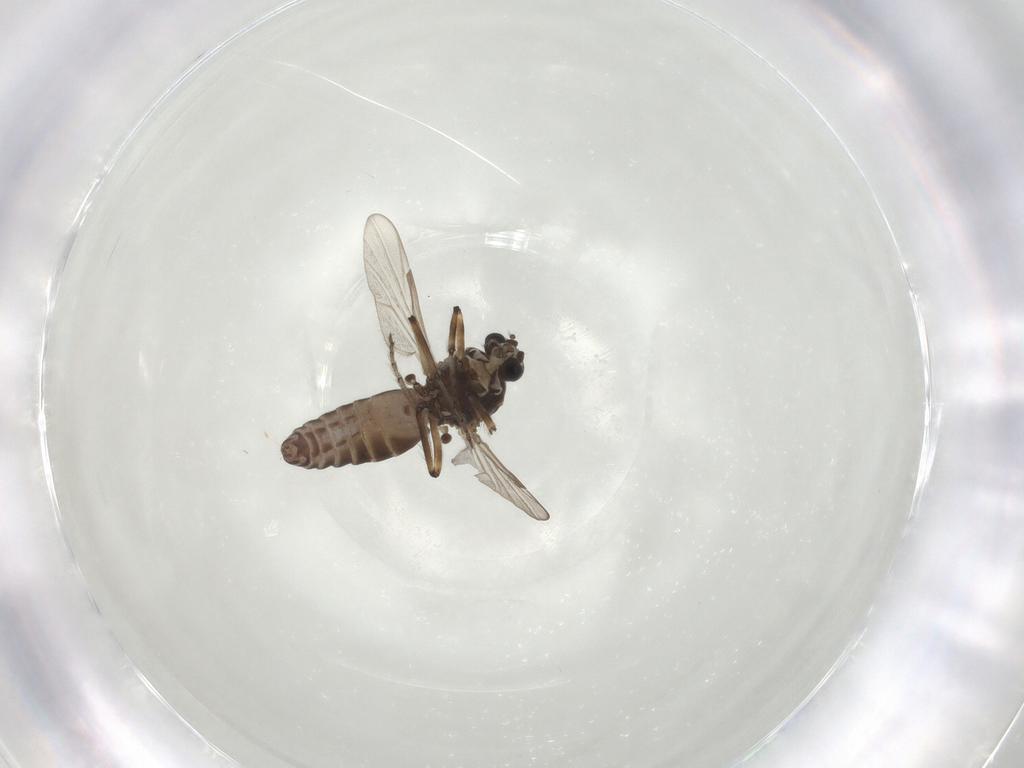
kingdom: Animalia
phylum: Arthropoda
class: Insecta
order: Diptera
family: Ceratopogonidae
